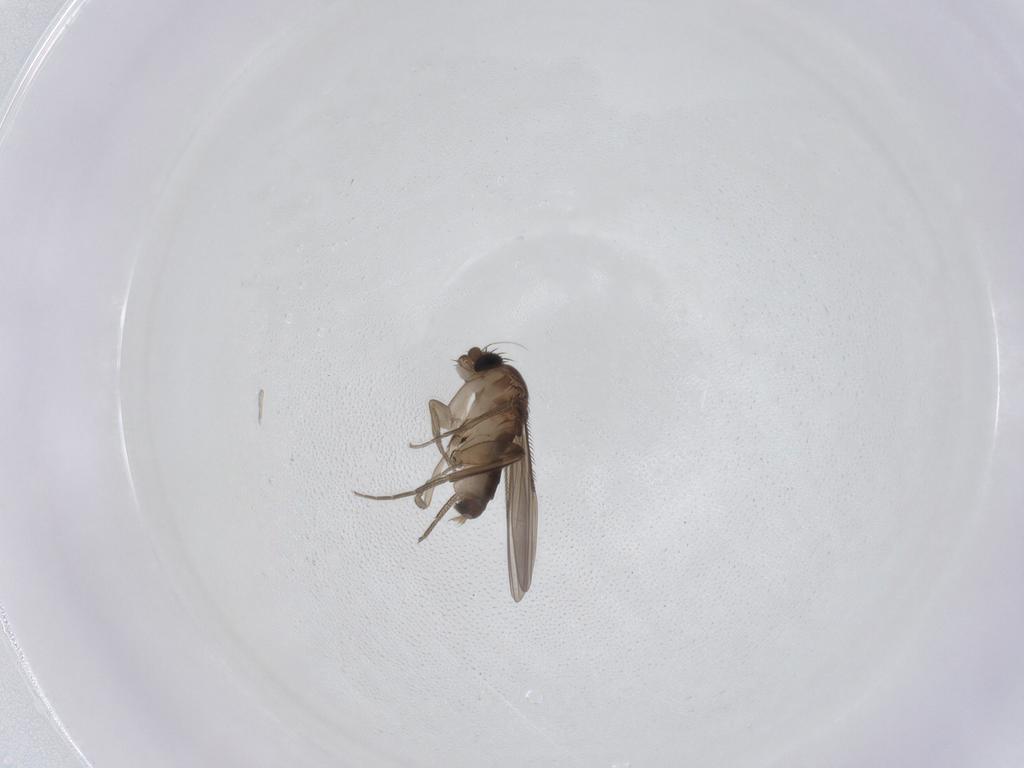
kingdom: Animalia
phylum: Arthropoda
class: Insecta
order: Diptera
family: Phoridae
